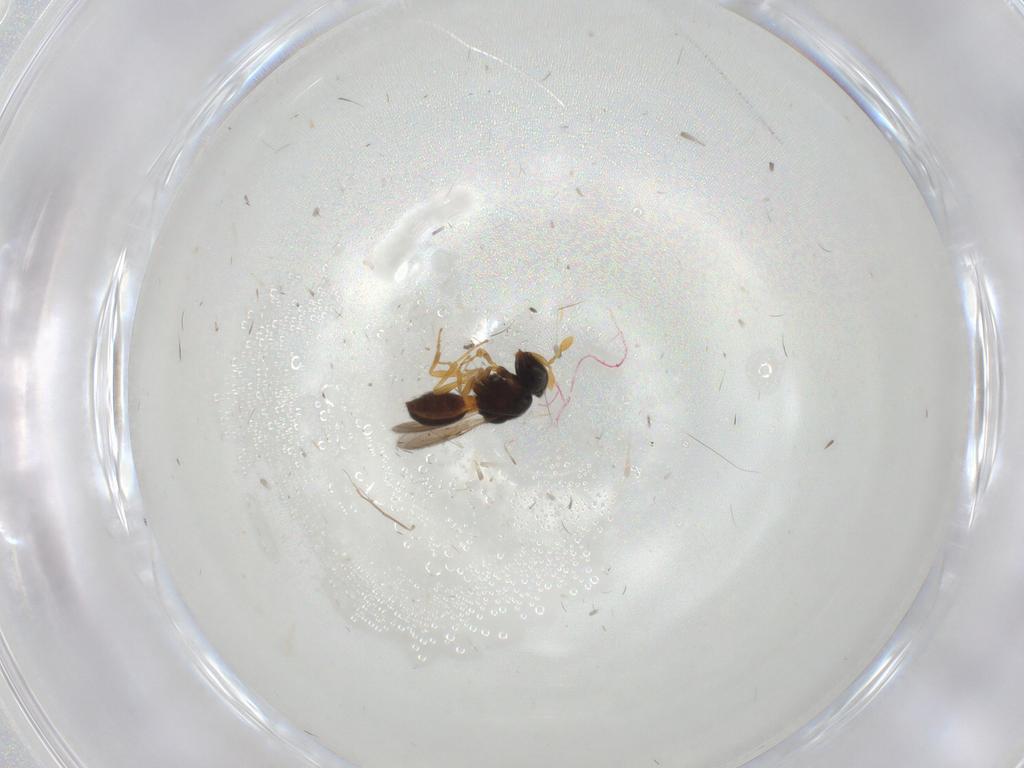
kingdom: Animalia
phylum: Arthropoda
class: Insecta
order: Hymenoptera
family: Scelionidae
